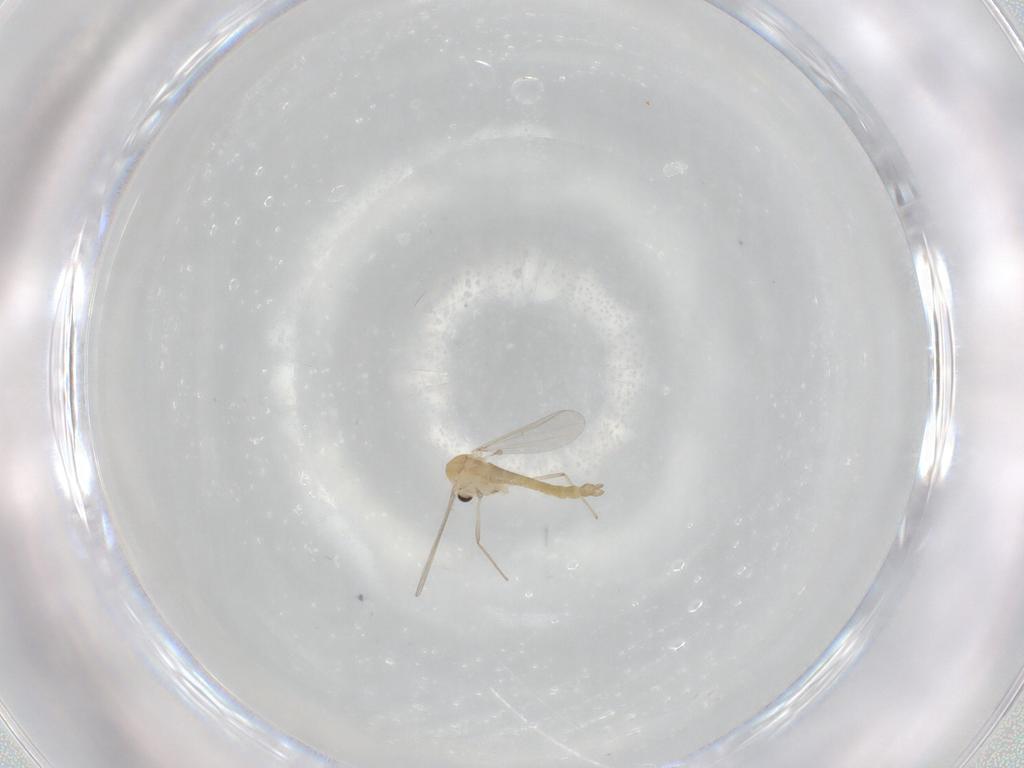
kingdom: Animalia
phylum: Arthropoda
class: Insecta
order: Diptera
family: Chironomidae
